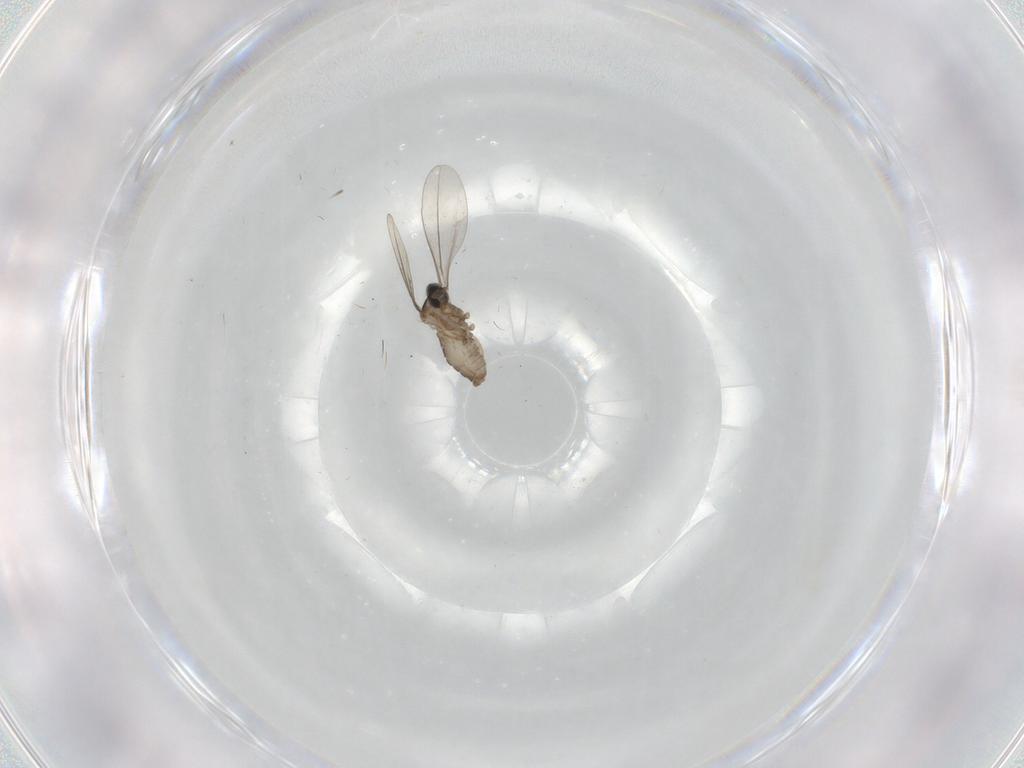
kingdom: Animalia
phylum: Arthropoda
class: Insecta
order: Diptera
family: Cecidomyiidae
